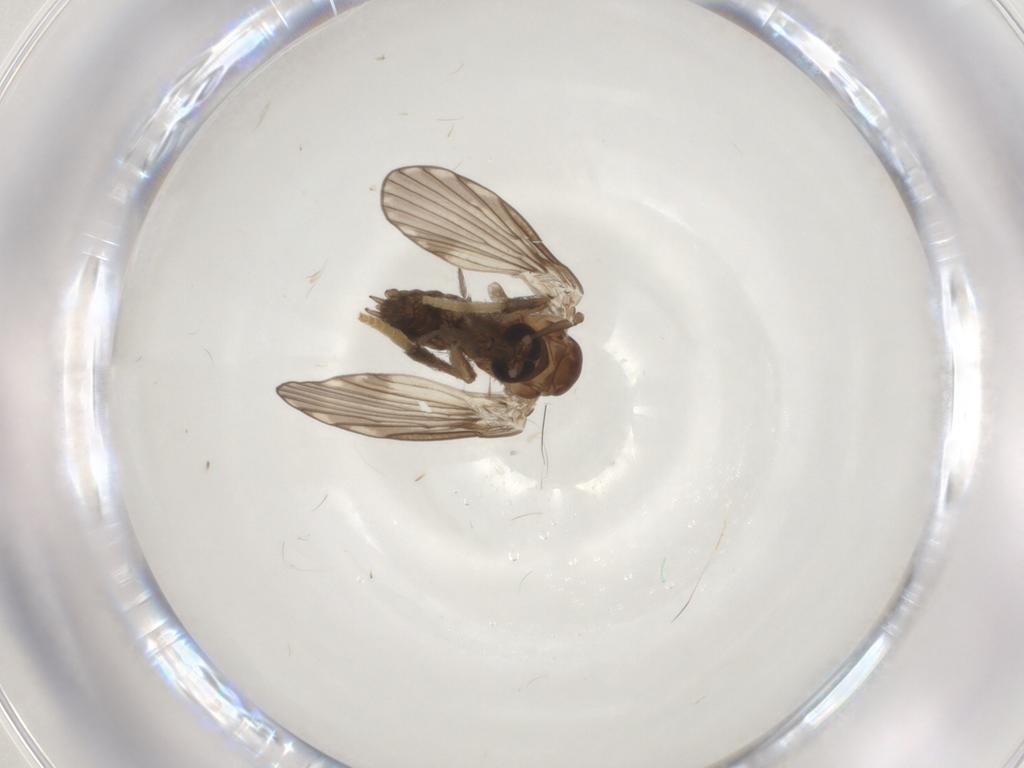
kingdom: Animalia
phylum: Arthropoda
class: Insecta
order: Diptera
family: Psychodidae
